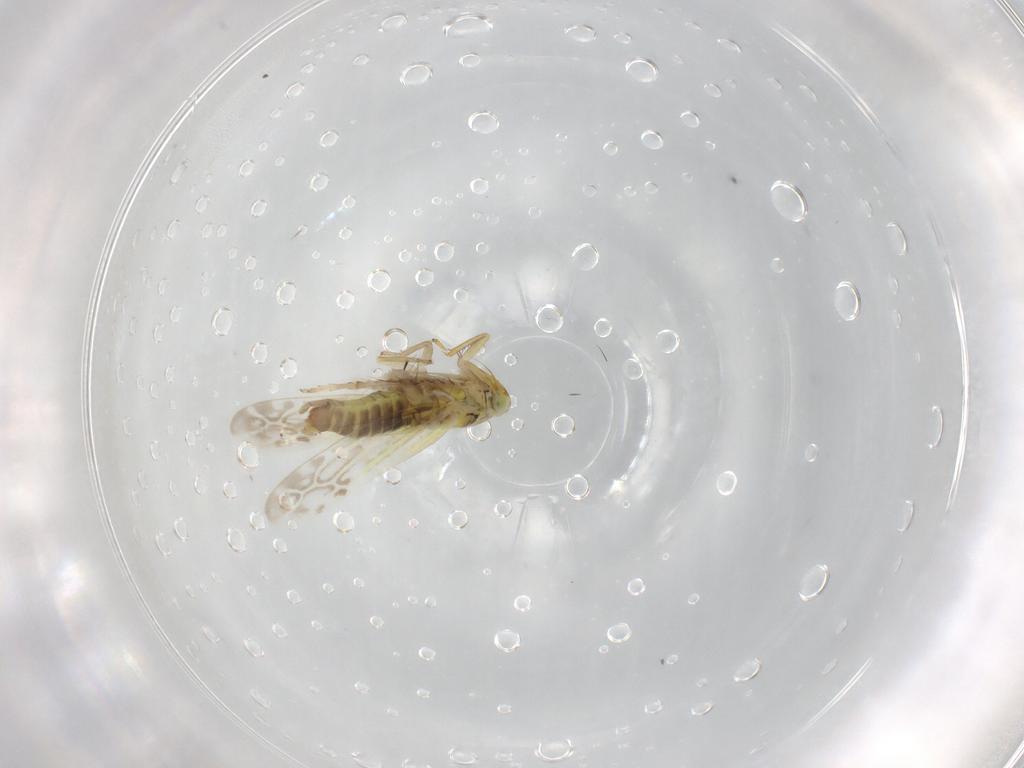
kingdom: Animalia
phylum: Arthropoda
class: Insecta
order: Hemiptera
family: Cicadellidae
